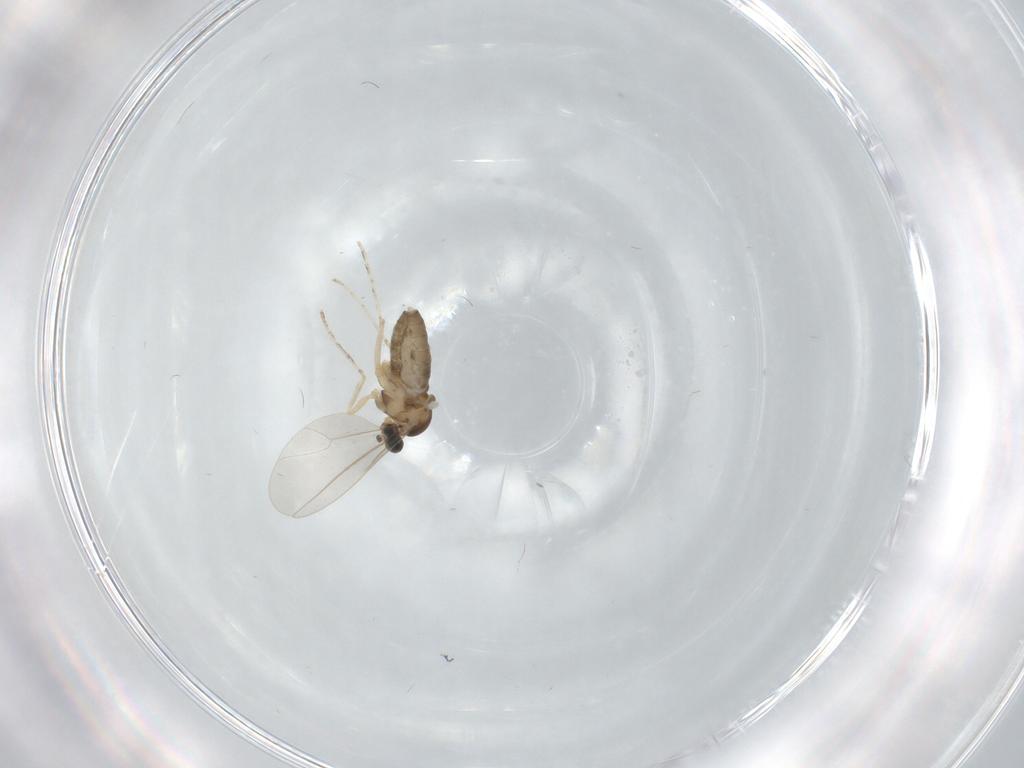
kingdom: Animalia
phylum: Arthropoda
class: Insecta
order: Diptera
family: Cecidomyiidae
